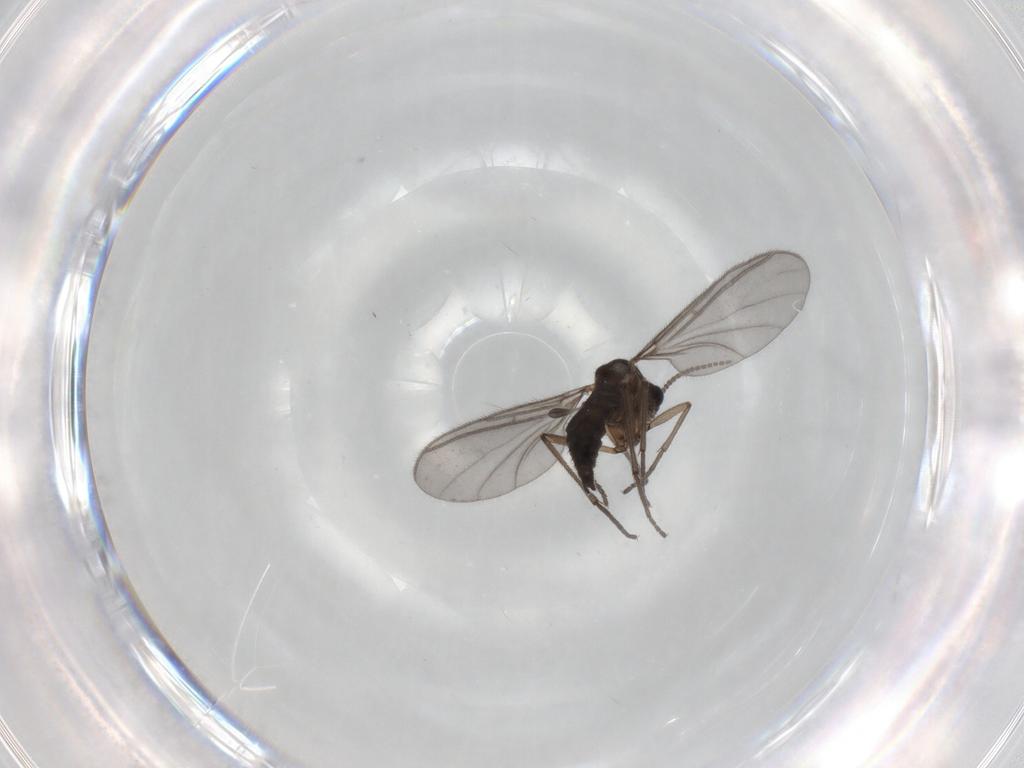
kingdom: Animalia
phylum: Arthropoda
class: Insecta
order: Diptera
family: Sciaridae
